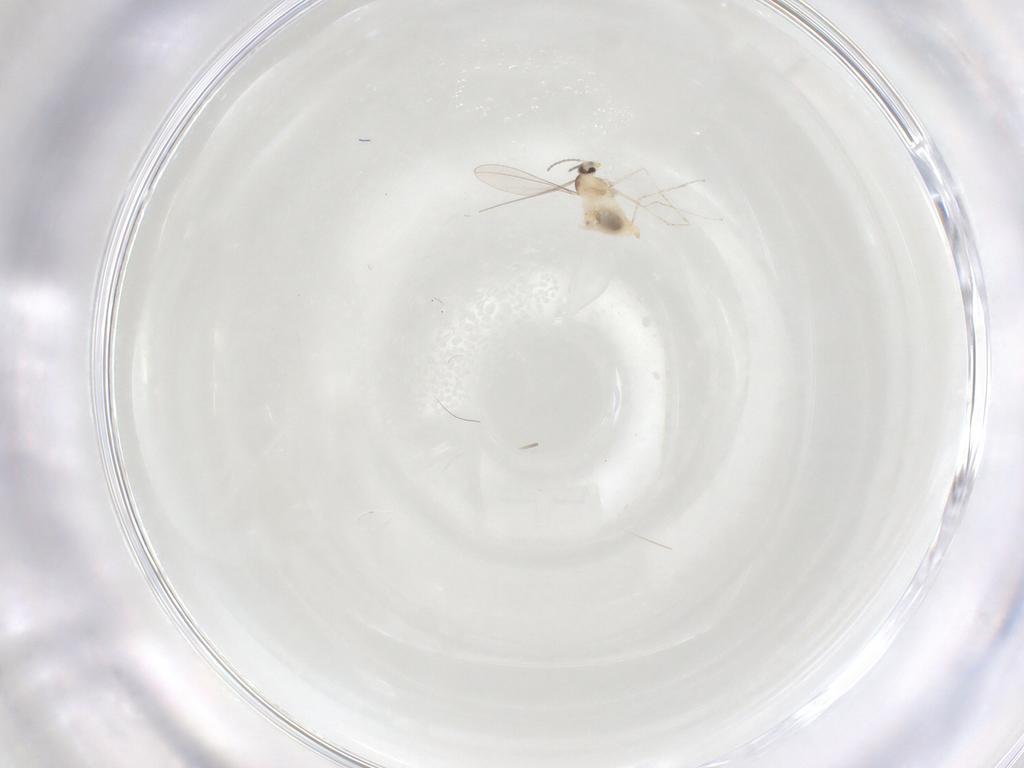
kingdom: Animalia
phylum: Arthropoda
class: Insecta
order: Diptera
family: Cecidomyiidae
